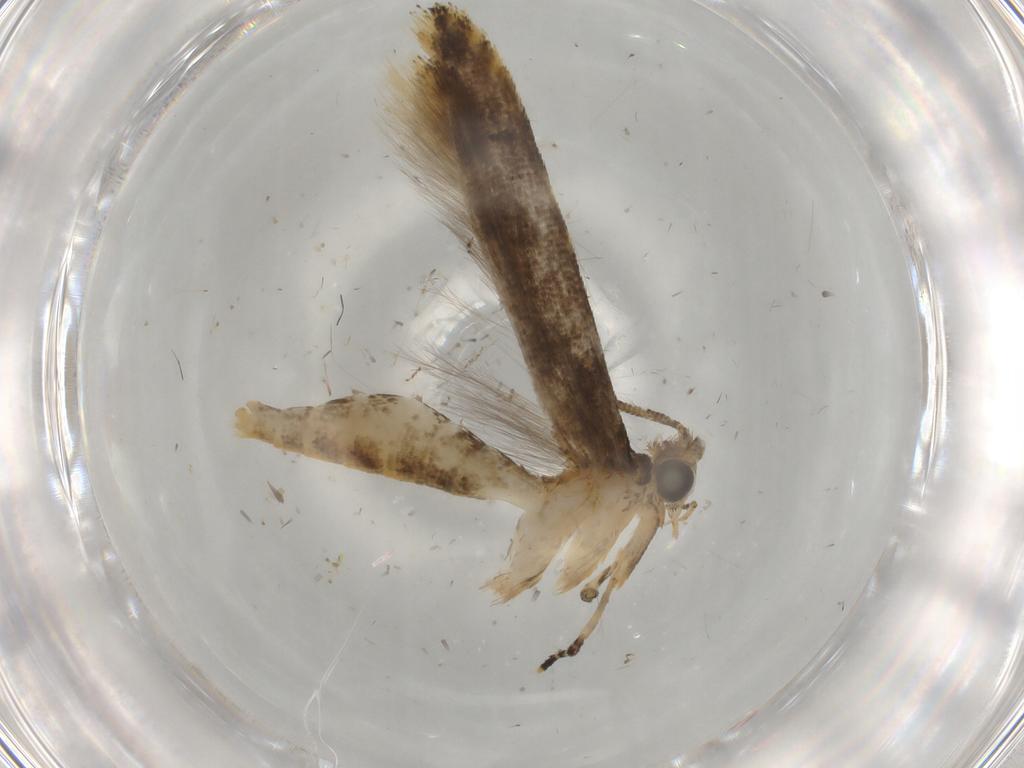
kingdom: Animalia
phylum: Arthropoda
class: Insecta
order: Lepidoptera
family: Tineidae
